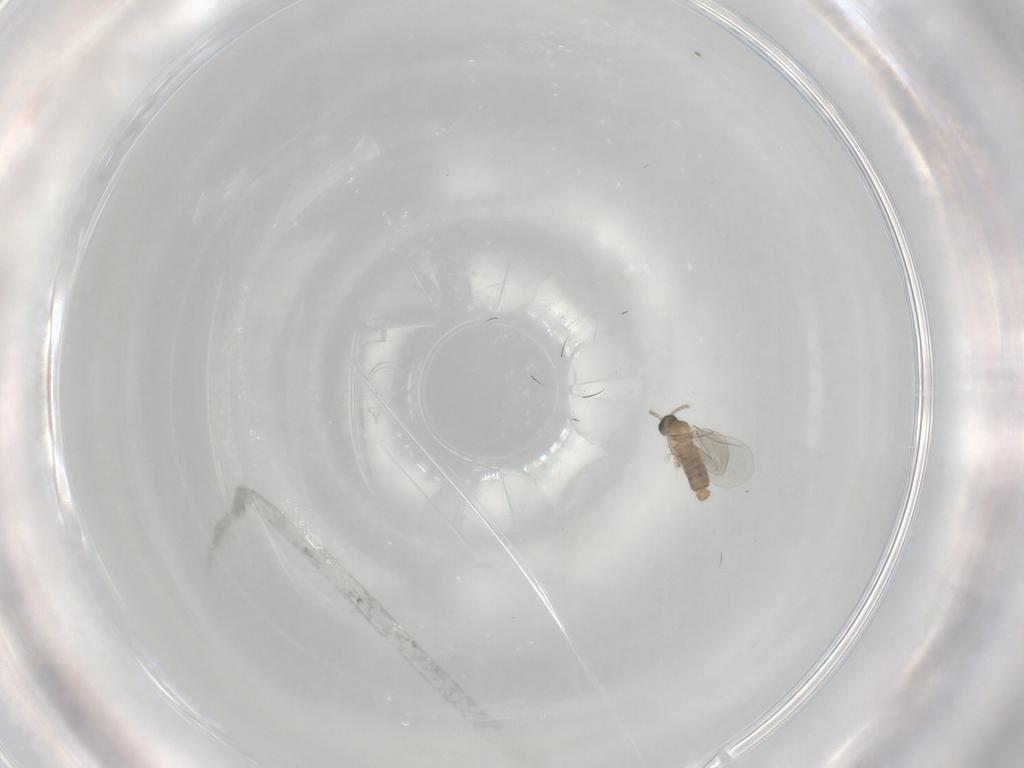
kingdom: Animalia
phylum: Arthropoda
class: Insecta
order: Diptera
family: Cecidomyiidae
